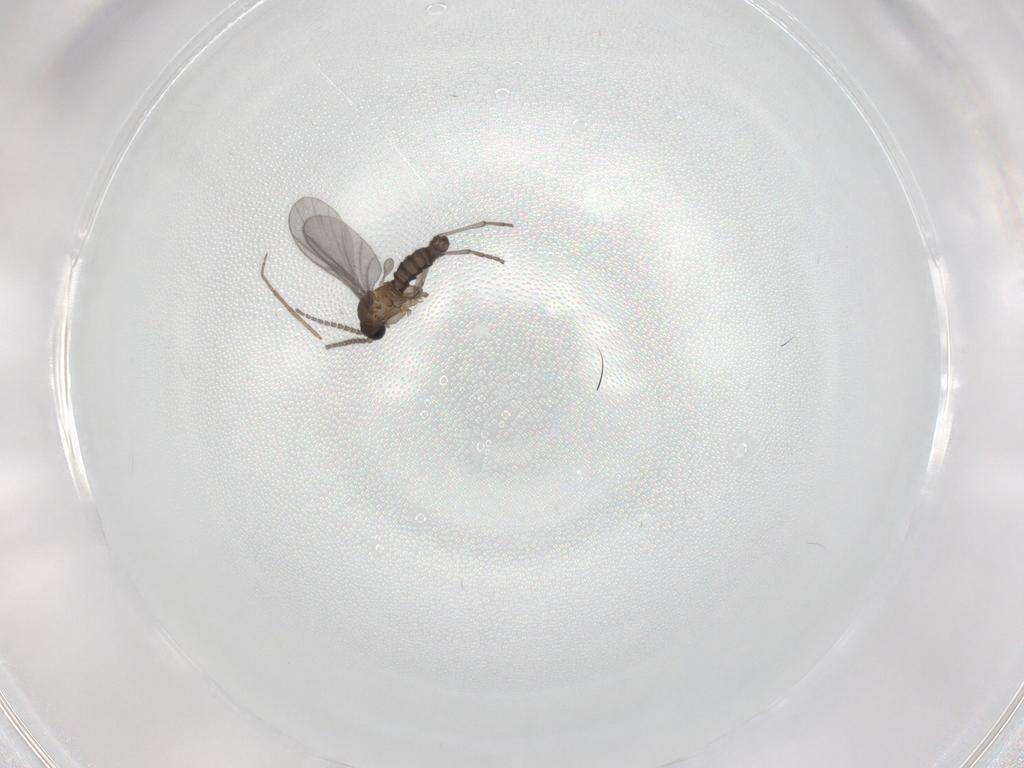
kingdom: Animalia
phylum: Arthropoda
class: Insecta
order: Diptera
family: Sciaridae
